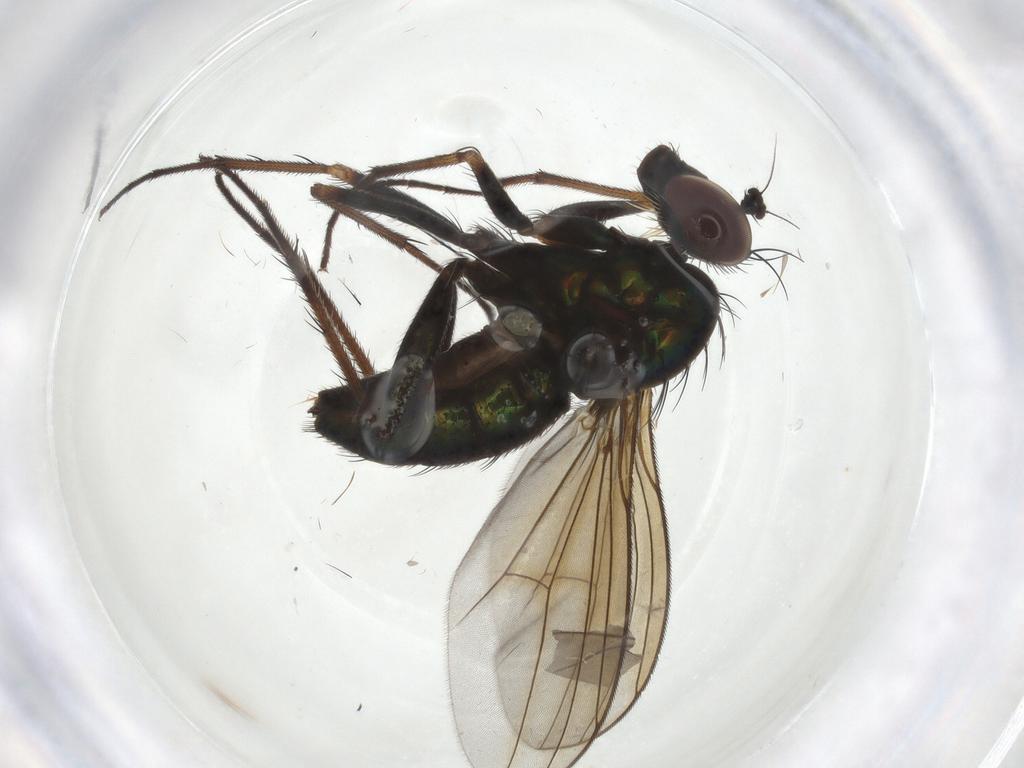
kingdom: Animalia
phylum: Arthropoda
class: Insecta
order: Diptera
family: Dolichopodidae
